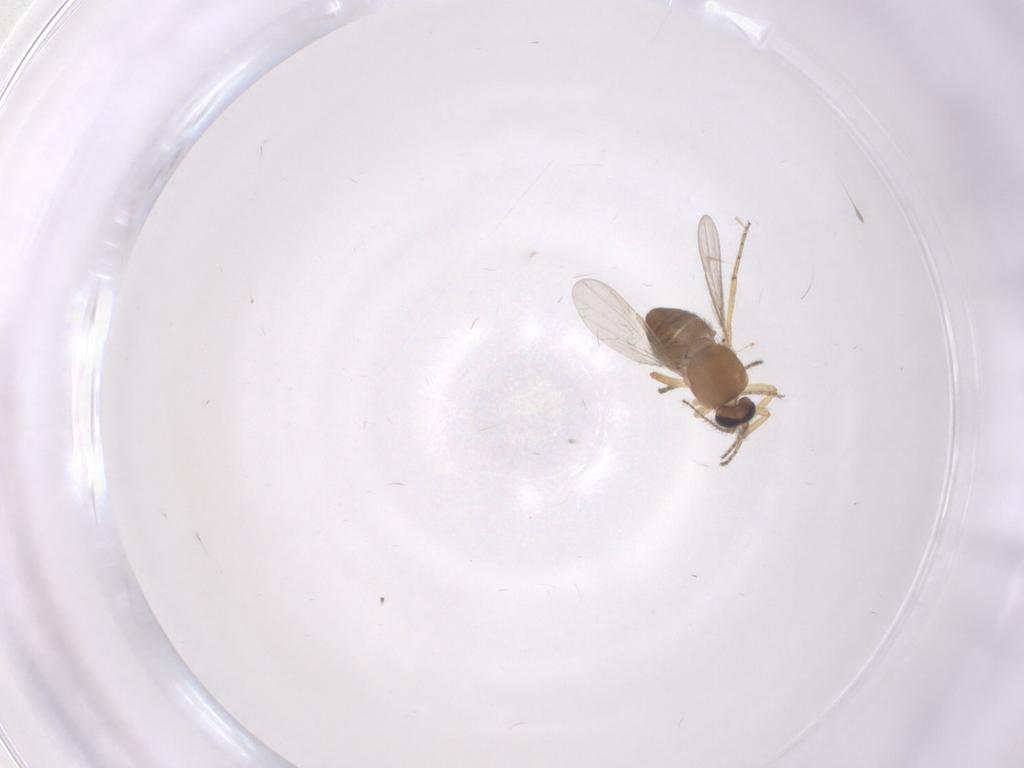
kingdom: Animalia
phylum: Arthropoda
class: Insecta
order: Diptera
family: Ceratopogonidae
